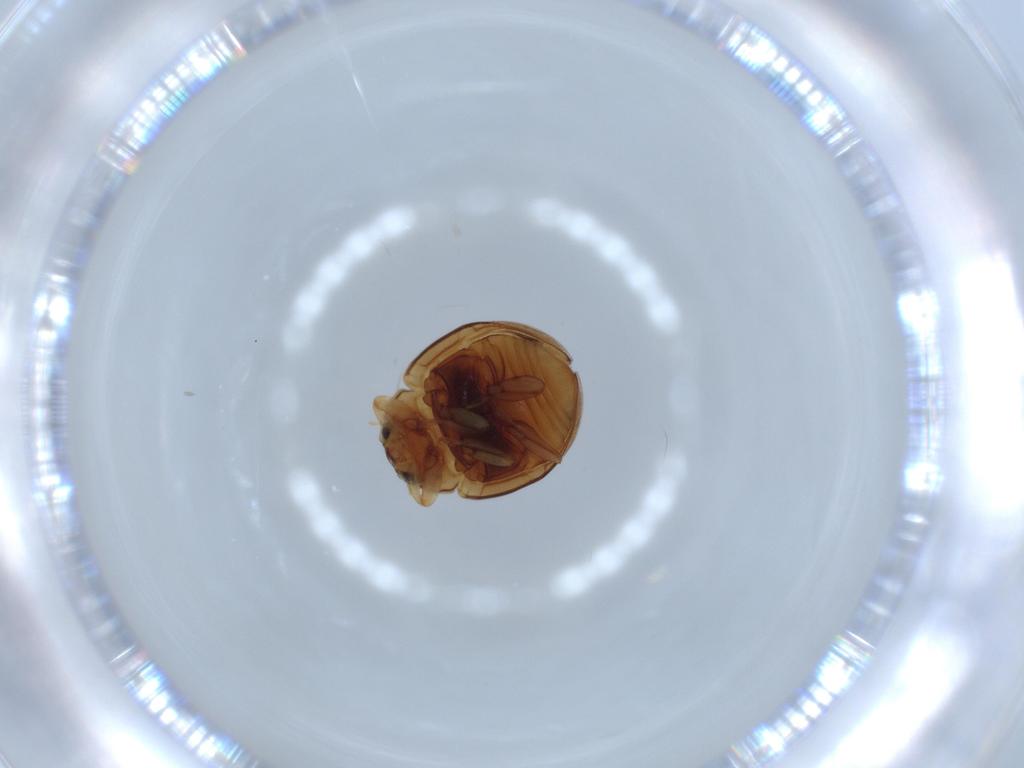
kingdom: Animalia
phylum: Arthropoda
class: Insecta
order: Coleoptera
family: Coccinellidae
